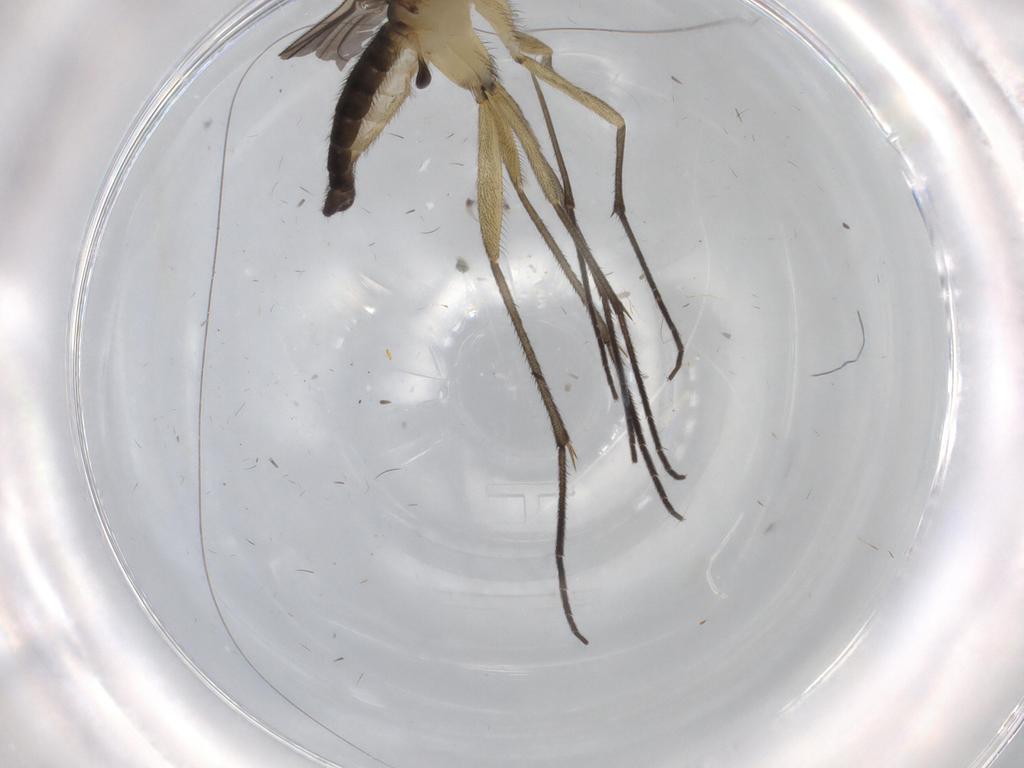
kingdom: Animalia
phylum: Arthropoda
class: Insecta
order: Diptera
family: Sciaridae
